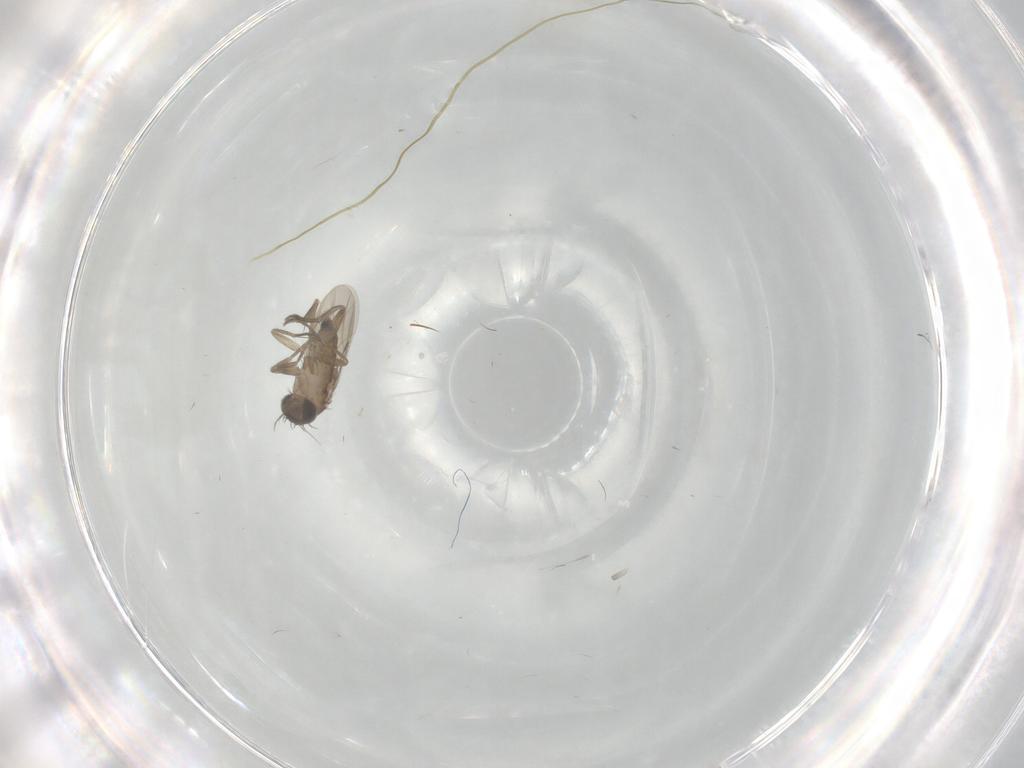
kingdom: Animalia
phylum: Arthropoda
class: Insecta
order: Diptera
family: Phoridae
